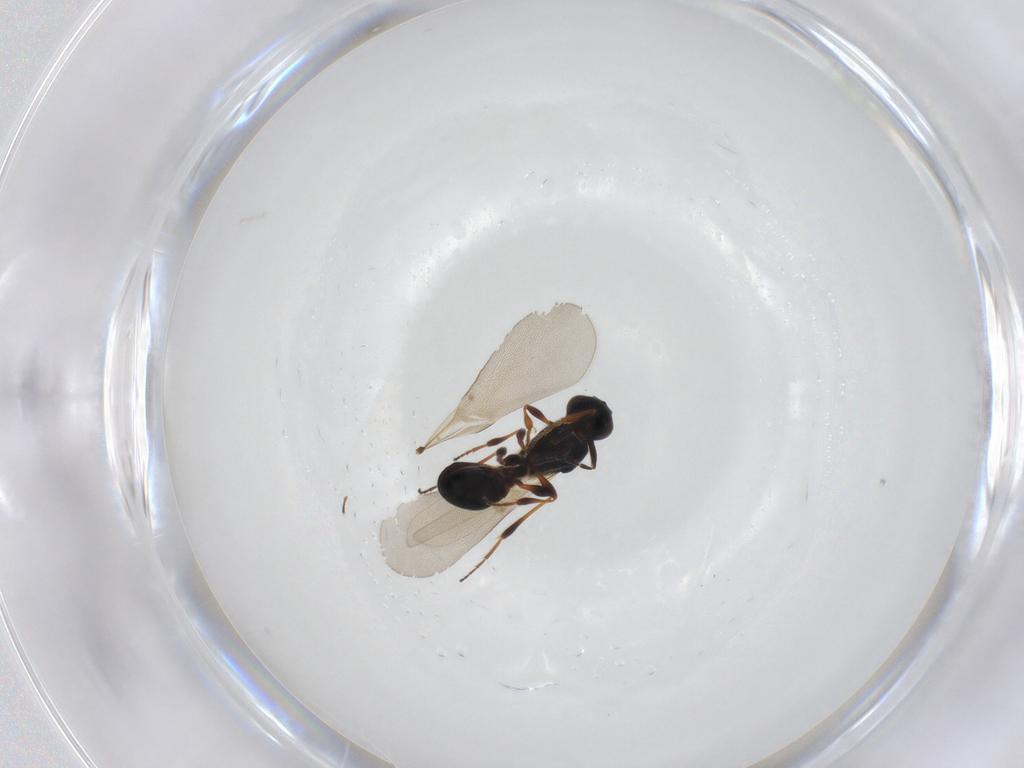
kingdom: Animalia
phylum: Arthropoda
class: Insecta
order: Hymenoptera
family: Platygastridae
